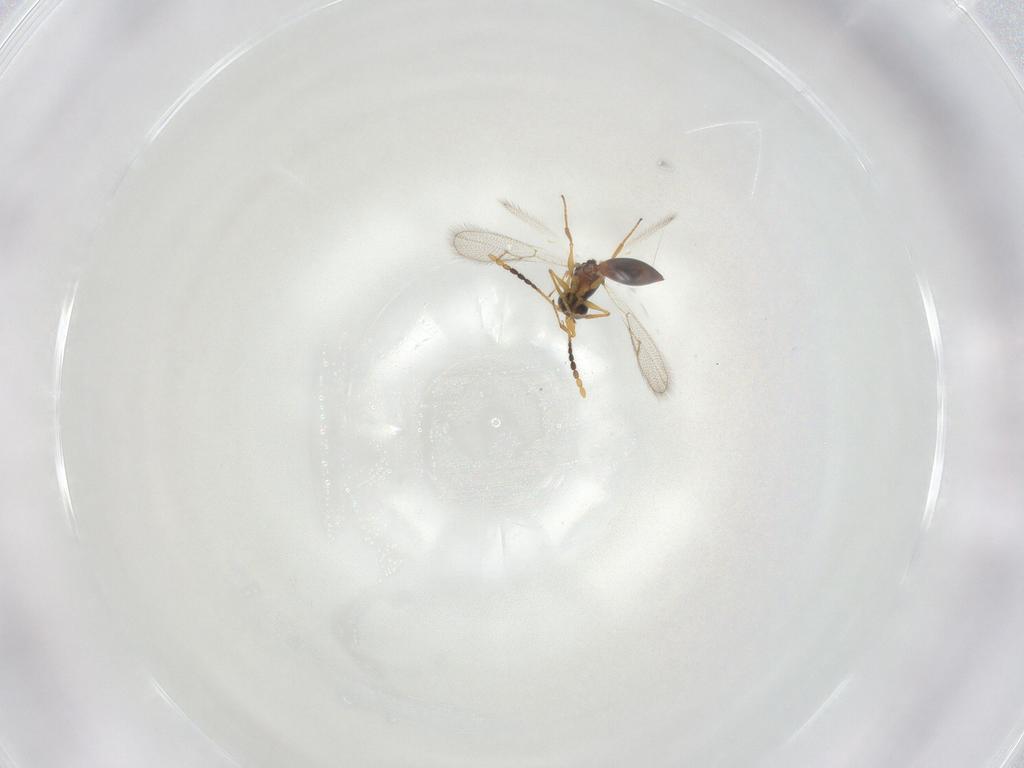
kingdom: Animalia
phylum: Arthropoda
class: Insecta
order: Hymenoptera
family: Figitidae
